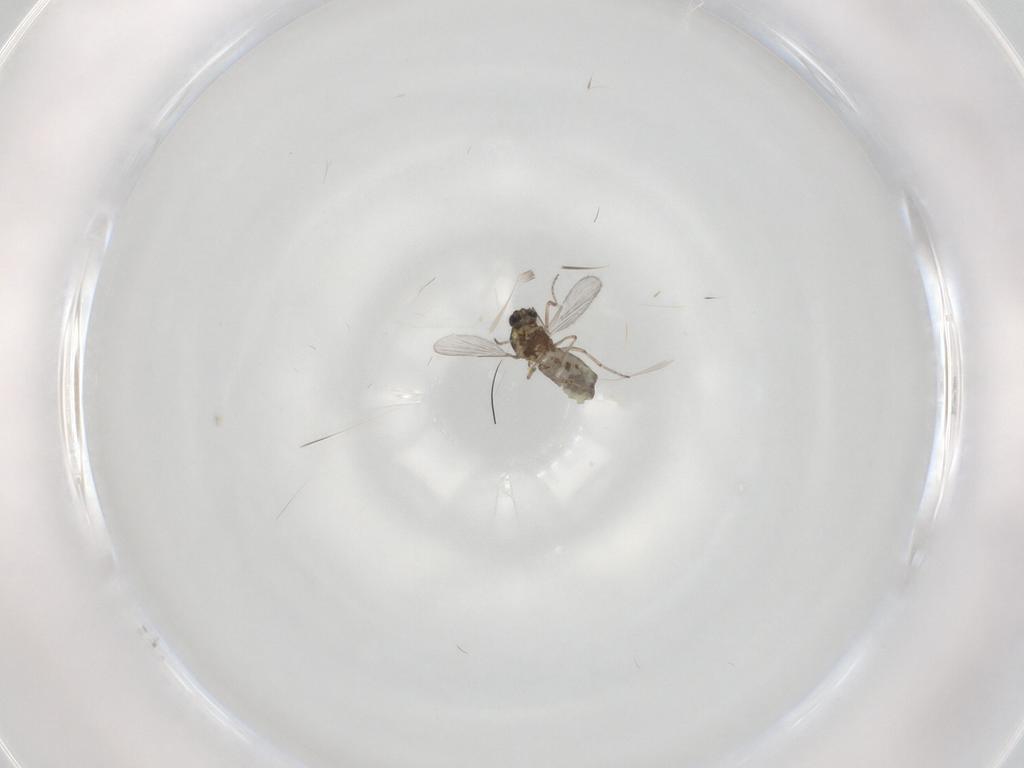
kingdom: Animalia
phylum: Arthropoda
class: Insecta
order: Diptera
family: Ceratopogonidae
